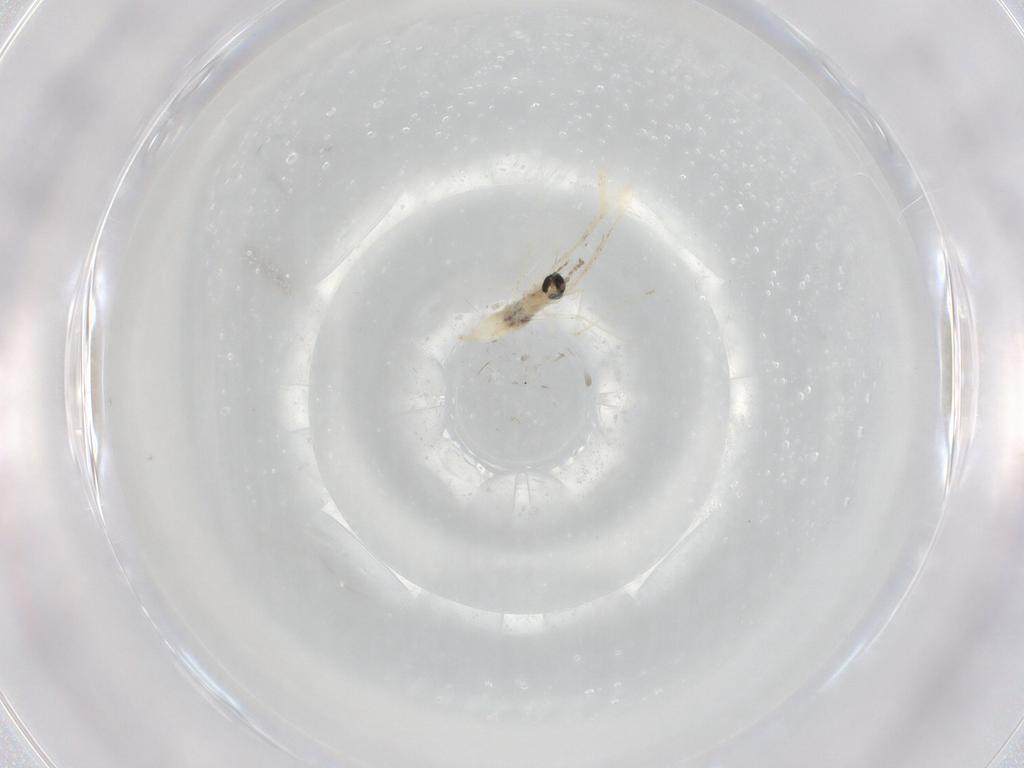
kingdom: Animalia
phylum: Arthropoda
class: Insecta
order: Diptera
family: Cecidomyiidae
